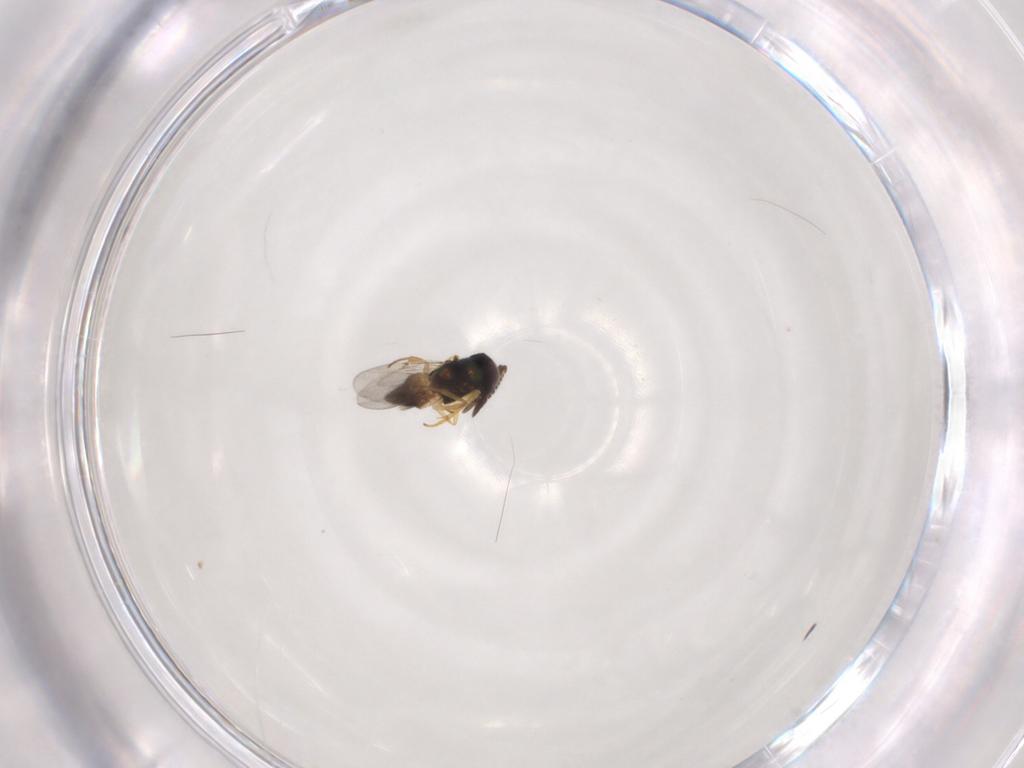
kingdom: Animalia
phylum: Arthropoda
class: Insecta
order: Hymenoptera
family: Encyrtidae
